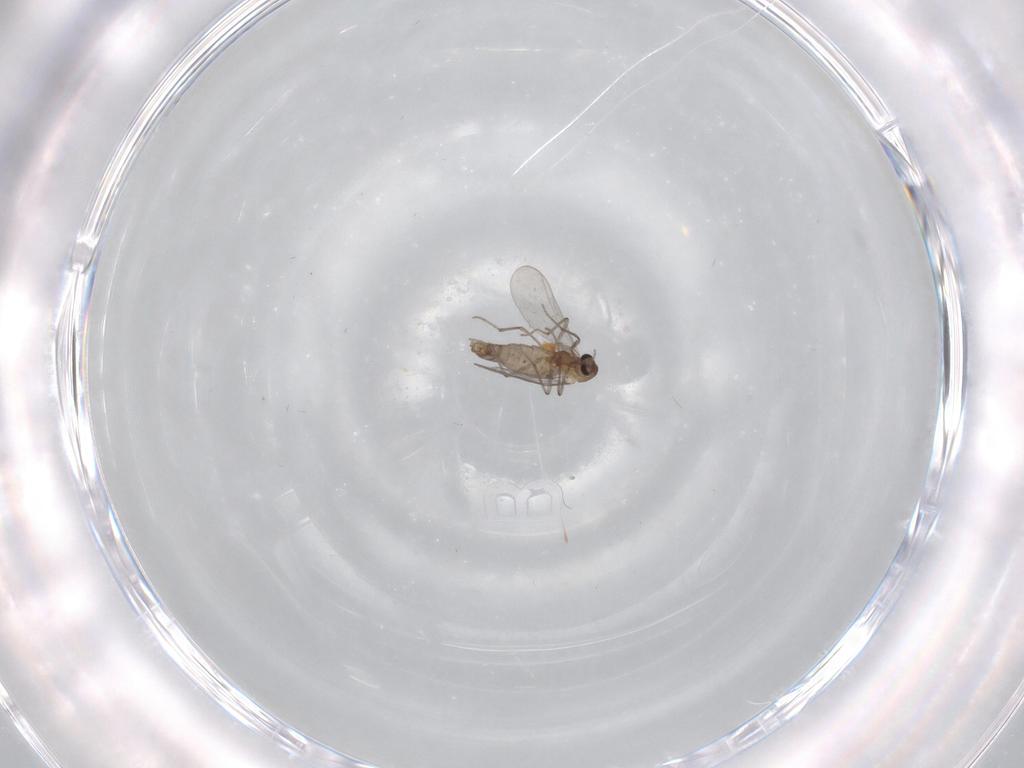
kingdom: Animalia
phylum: Arthropoda
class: Insecta
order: Diptera
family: Chironomidae
